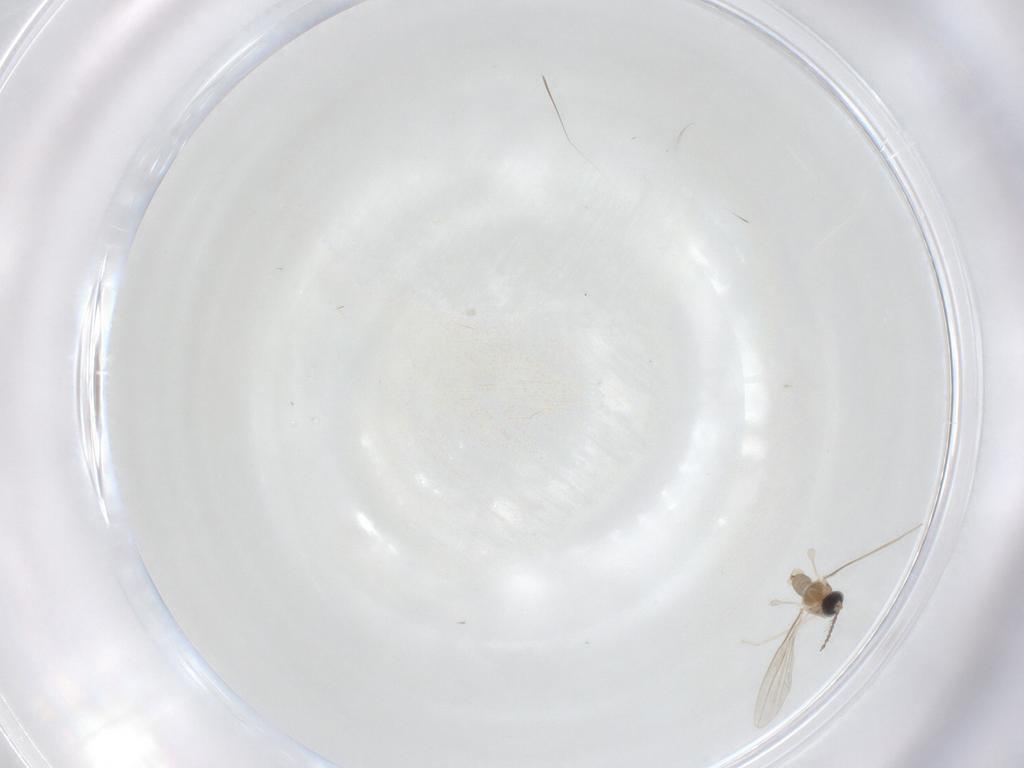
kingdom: Animalia
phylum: Arthropoda
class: Insecta
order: Diptera
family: Cecidomyiidae
